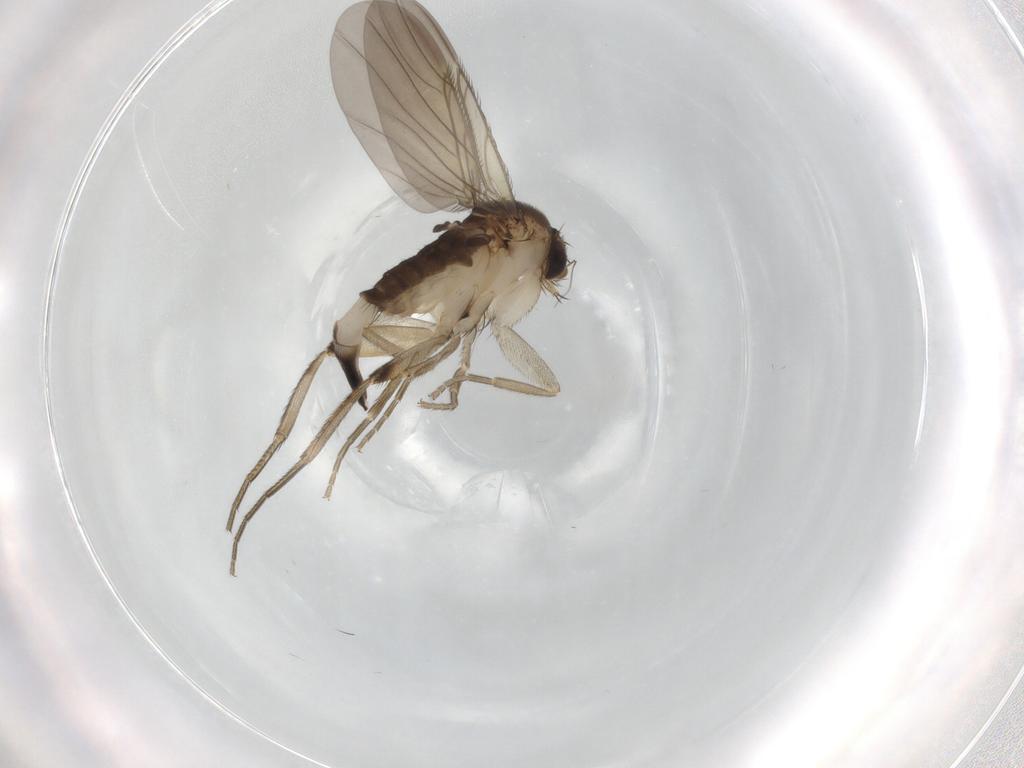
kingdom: Animalia
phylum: Arthropoda
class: Insecta
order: Diptera
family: Phoridae
